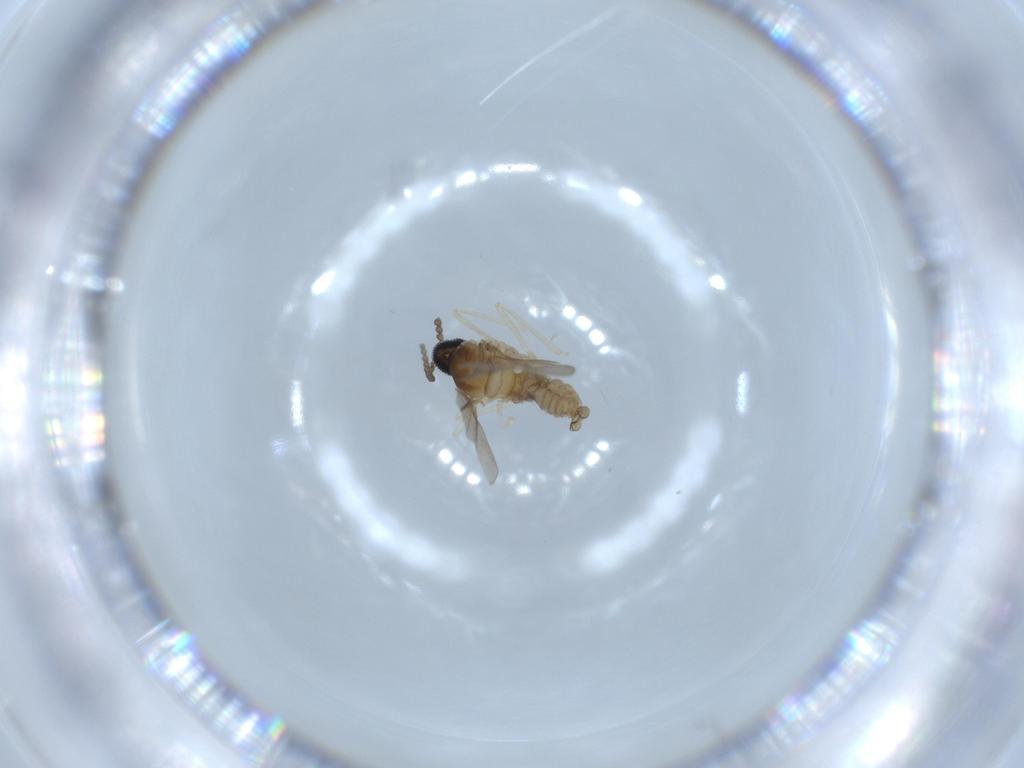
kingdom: Animalia
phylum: Arthropoda
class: Insecta
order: Diptera
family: Cecidomyiidae
